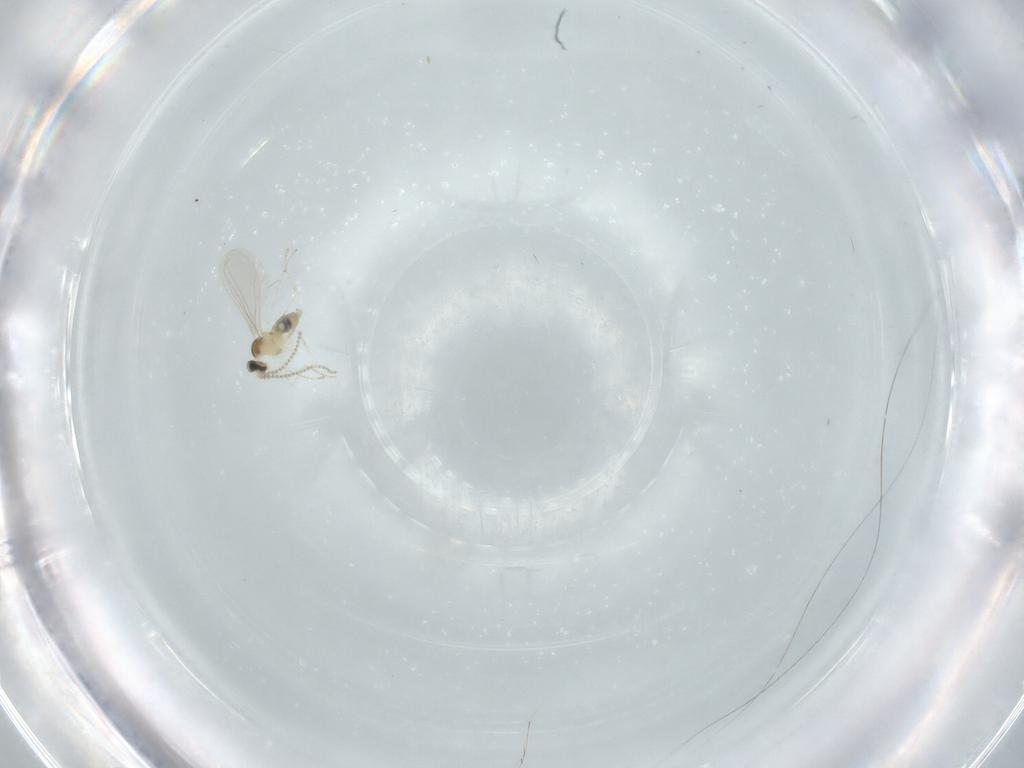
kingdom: Animalia
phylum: Arthropoda
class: Insecta
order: Diptera
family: Cecidomyiidae
